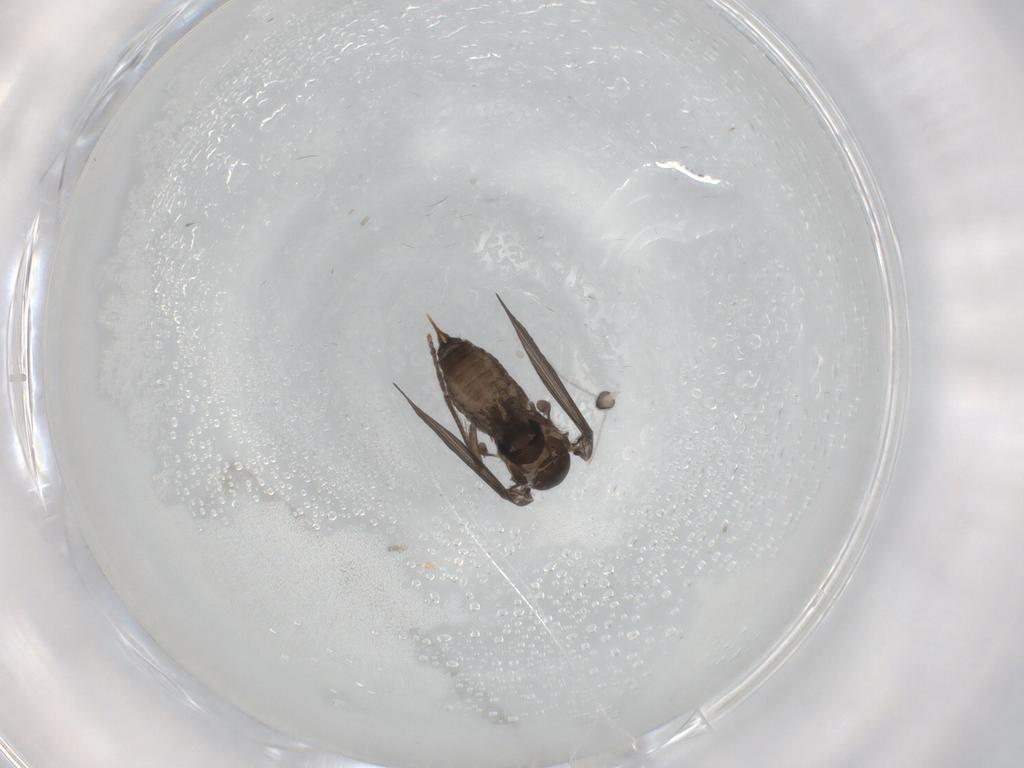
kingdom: Animalia
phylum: Arthropoda
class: Insecta
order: Diptera
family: Psychodidae
